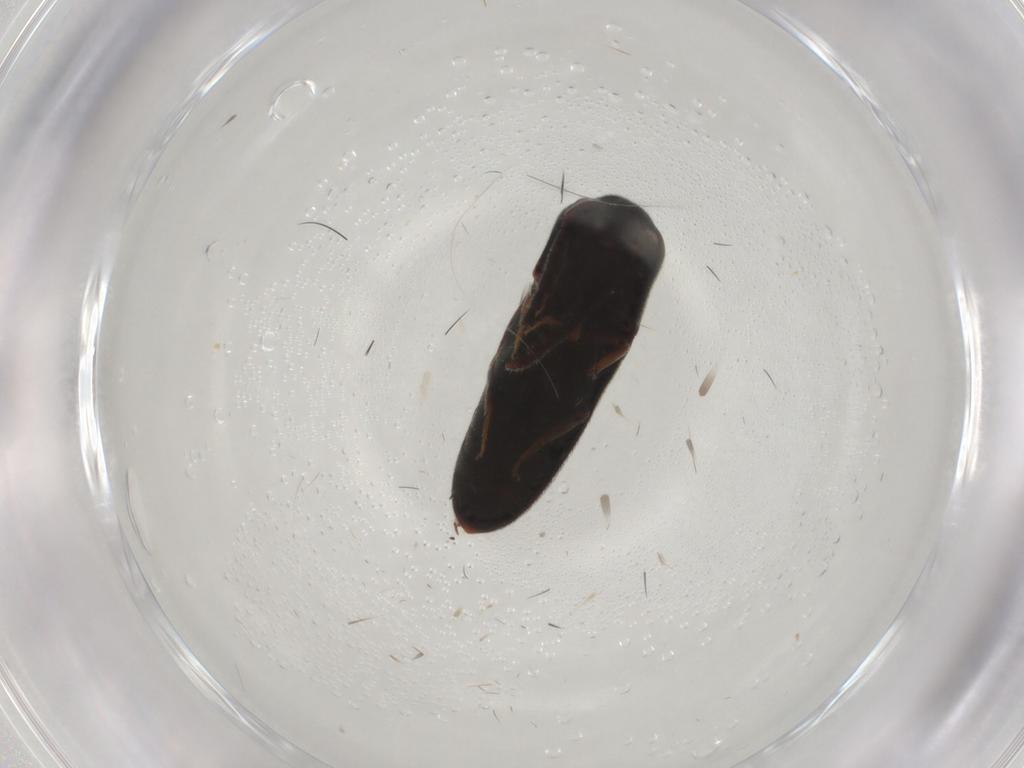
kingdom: Animalia
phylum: Arthropoda
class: Insecta
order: Coleoptera
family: Eucnemidae
